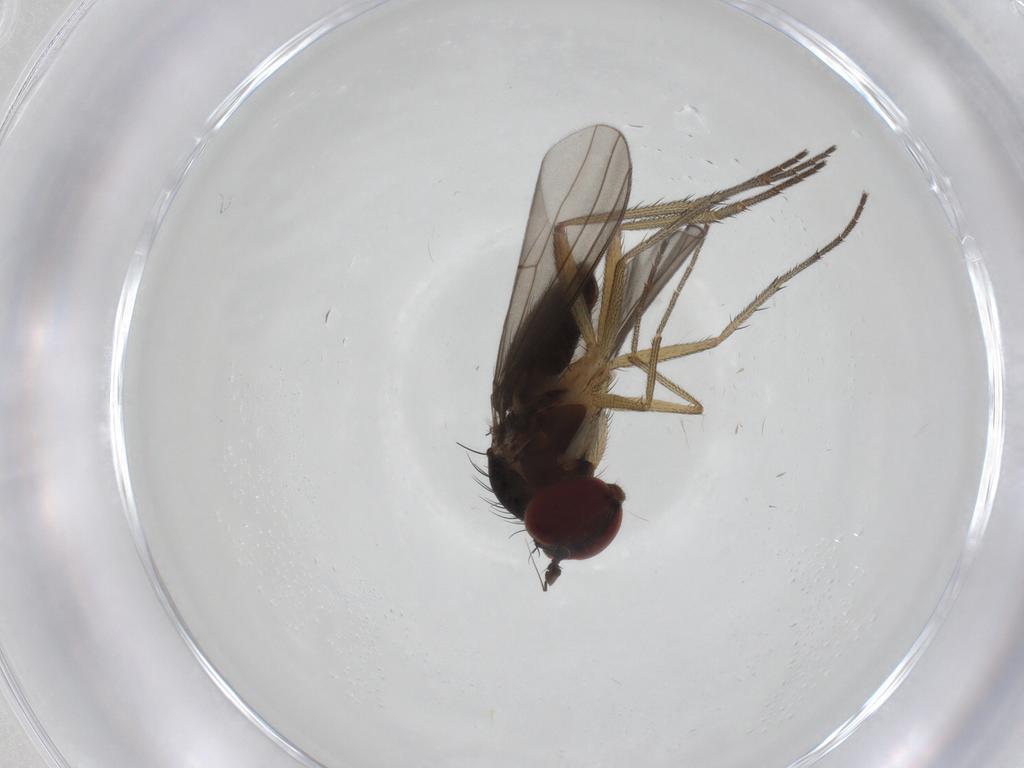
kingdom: Animalia
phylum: Arthropoda
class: Insecta
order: Diptera
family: Dolichopodidae
